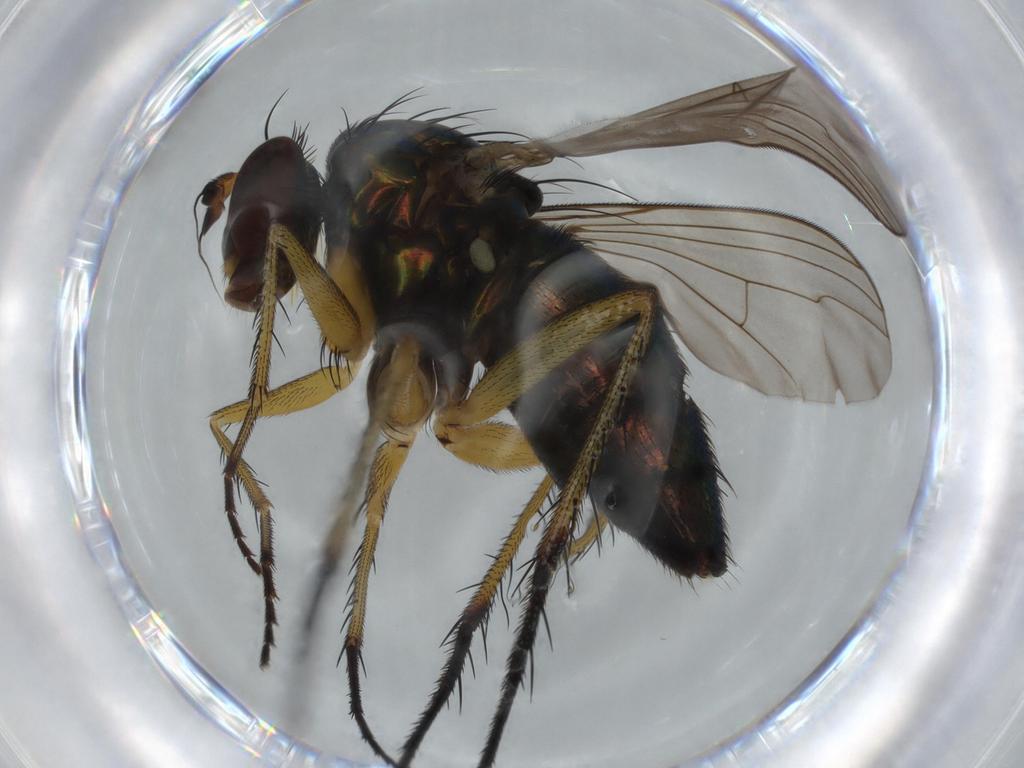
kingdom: Animalia
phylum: Arthropoda
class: Insecta
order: Diptera
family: Dolichopodidae
